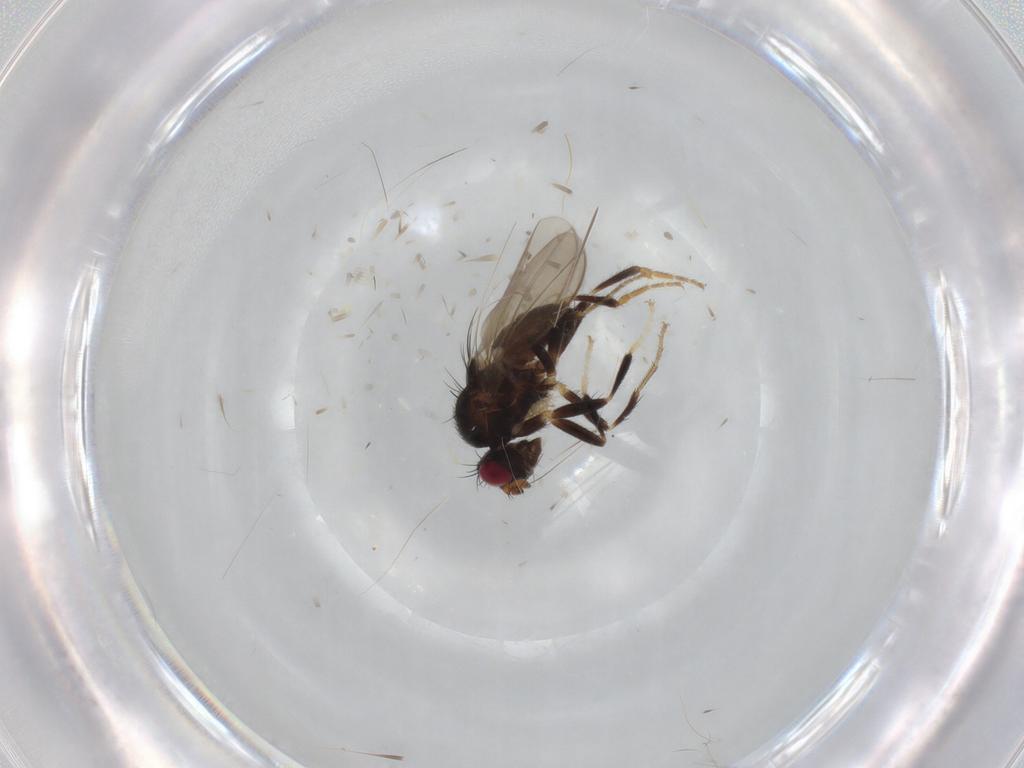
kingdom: Animalia
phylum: Arthropoda
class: Insecta
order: Diptera
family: Sphaeroceridae
